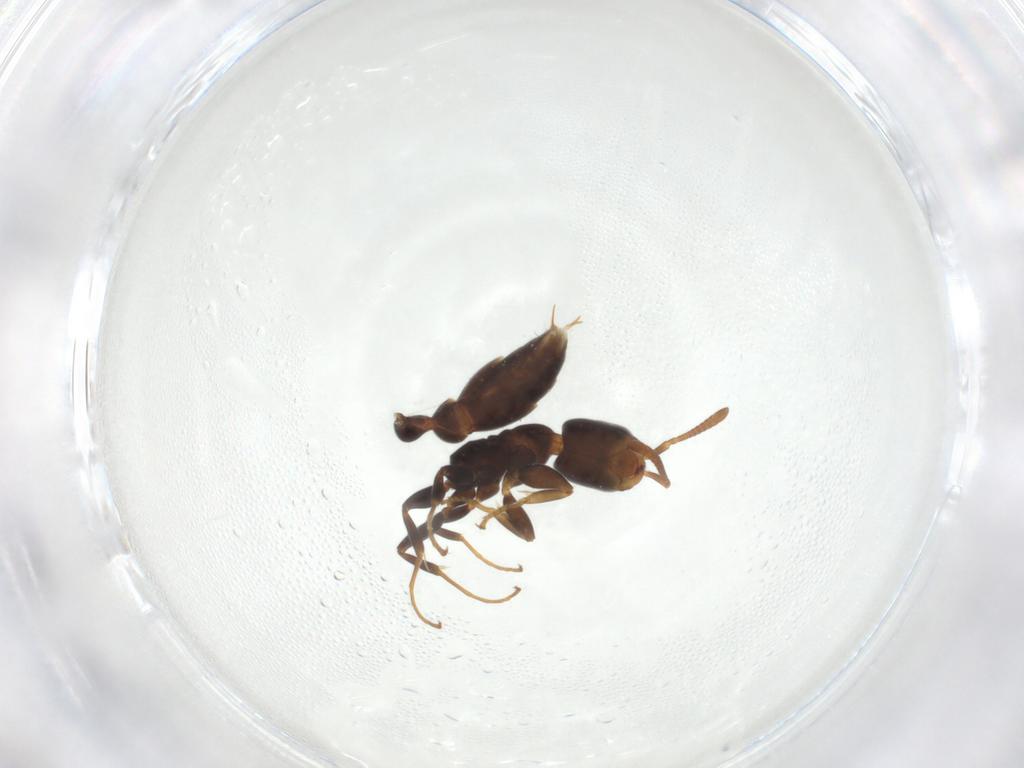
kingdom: Animalia
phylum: Arthropoda
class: Insecta
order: Hymenoptera
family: Formicidae
